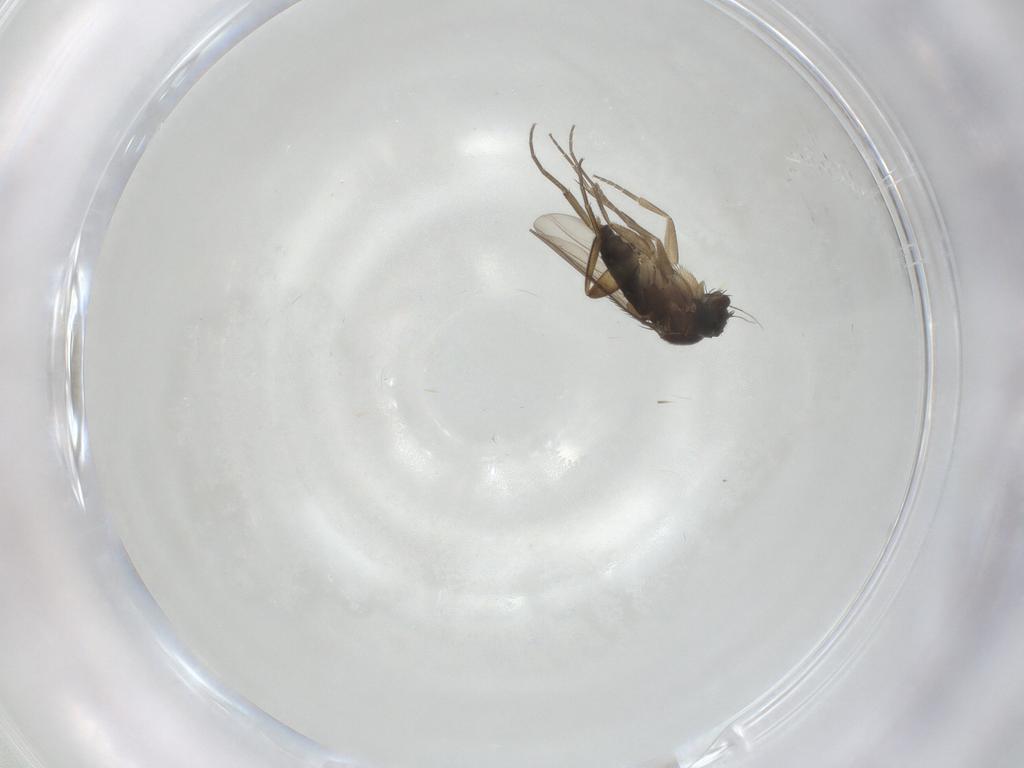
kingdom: Animalia
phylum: Arthropoda
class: Insecta
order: Diptera
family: Phoridae
